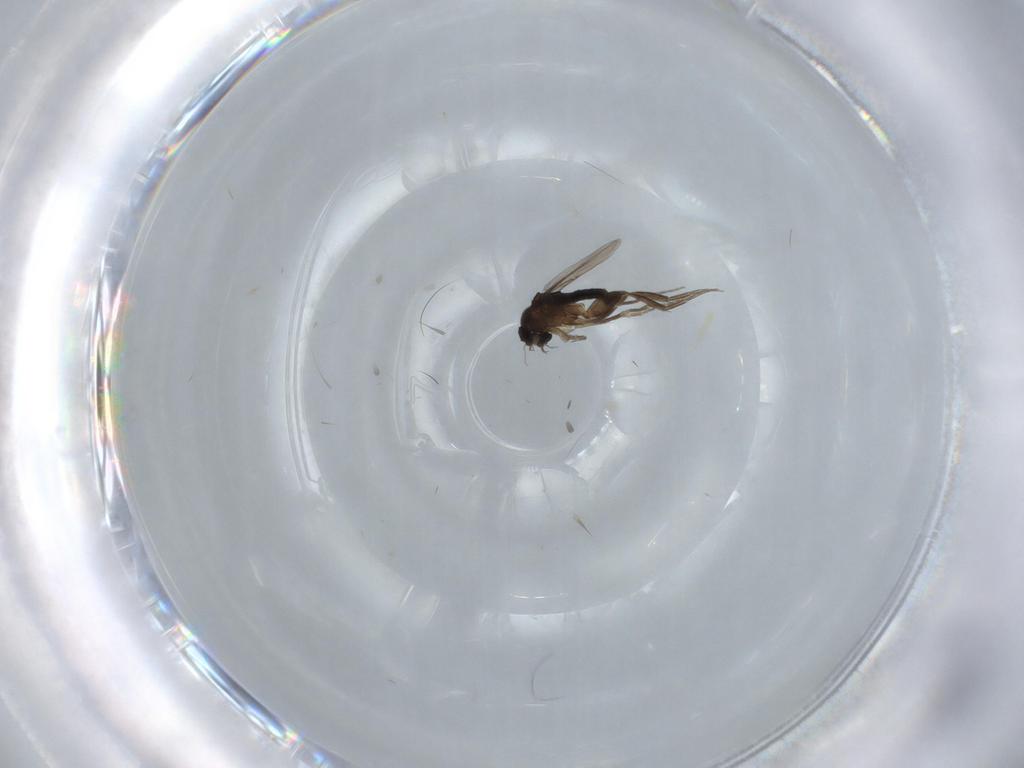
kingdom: Animalia
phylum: Arthropoda
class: Insecta
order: Diptera
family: Phoridae
